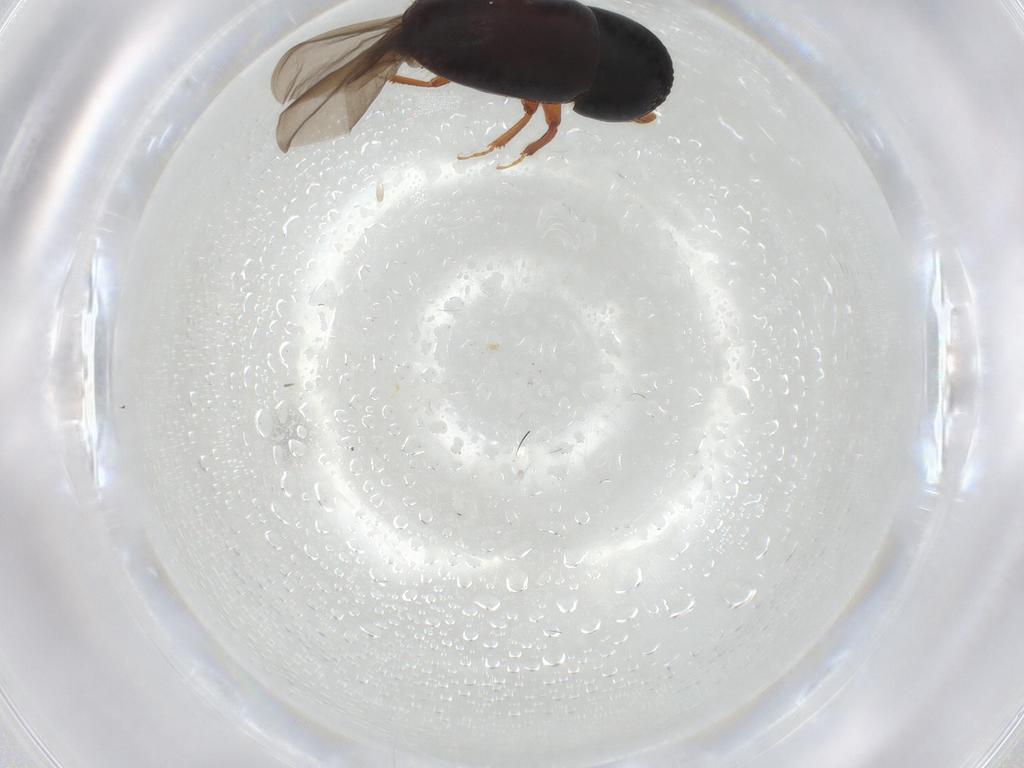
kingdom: Animalia
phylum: Arthropoda
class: Insecta
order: Coleoptera
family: Curculionidae
